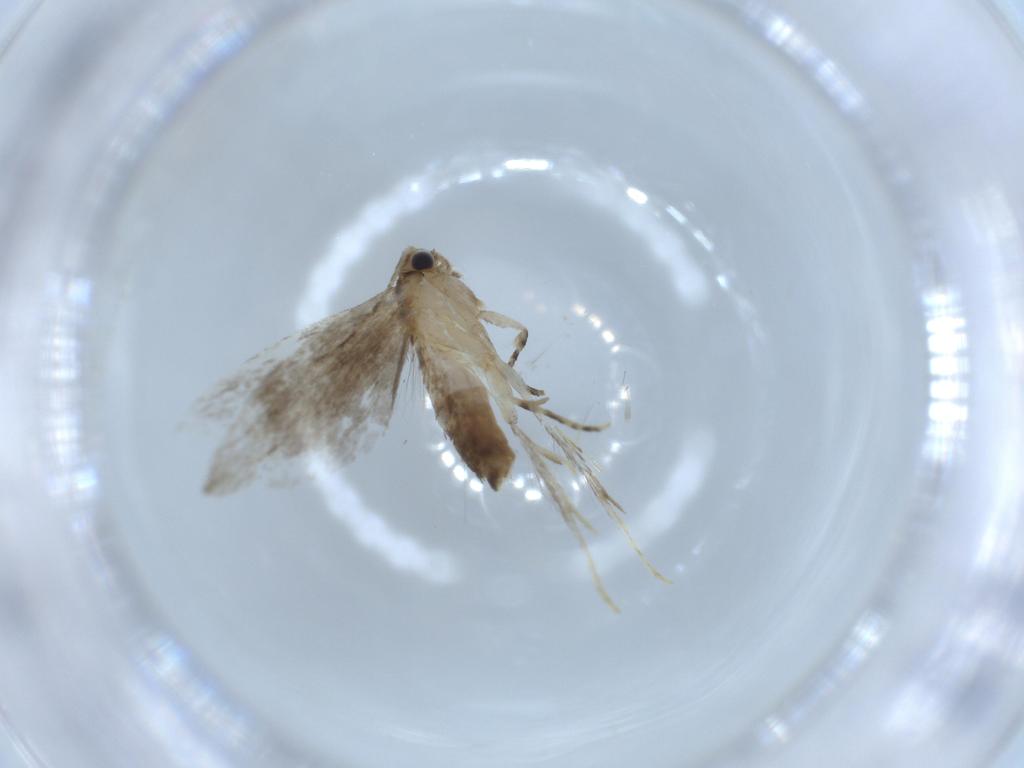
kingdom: Animalia
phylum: Arthropoda
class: Insecta
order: Lepidoptera
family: Tineidae
